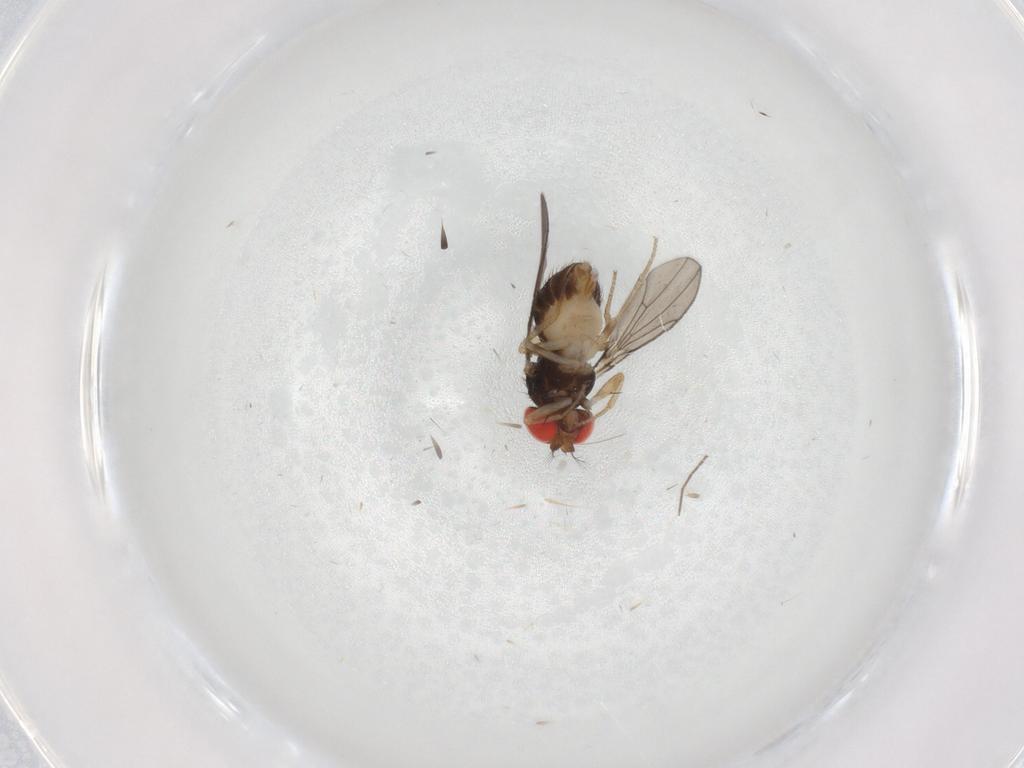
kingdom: Animalia
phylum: Arthropoda
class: Insecta
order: Diptera
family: Drosophilidae
